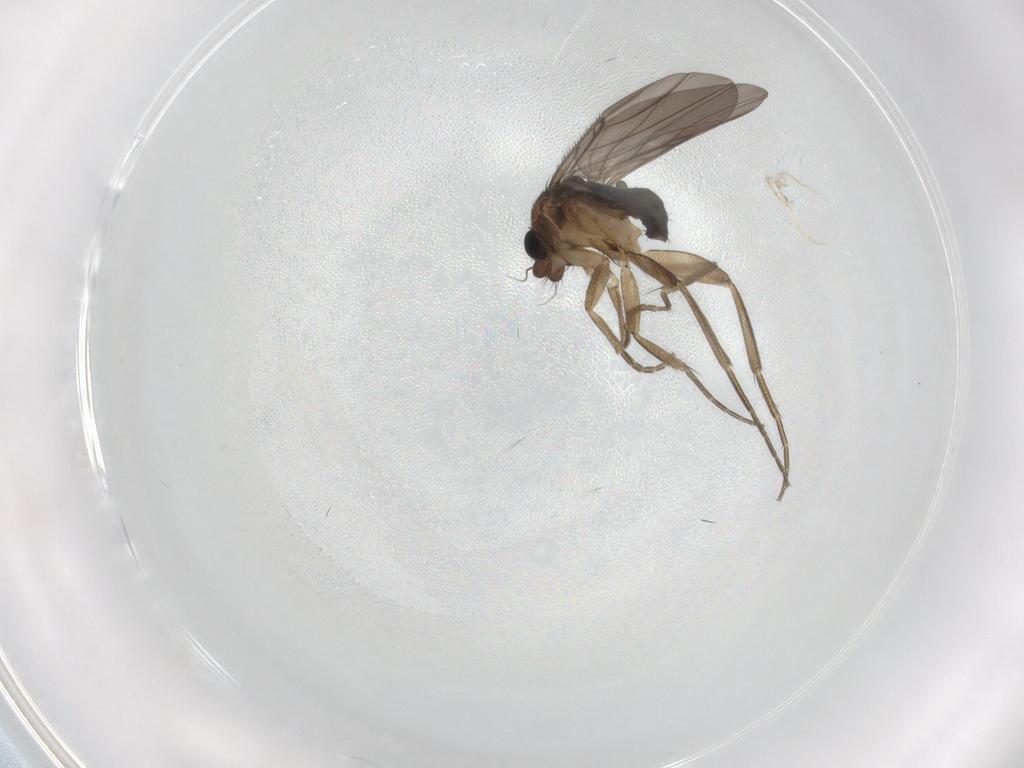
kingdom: Animalia
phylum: Arthropoda
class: Insecta
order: Diptera
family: Phoridae
